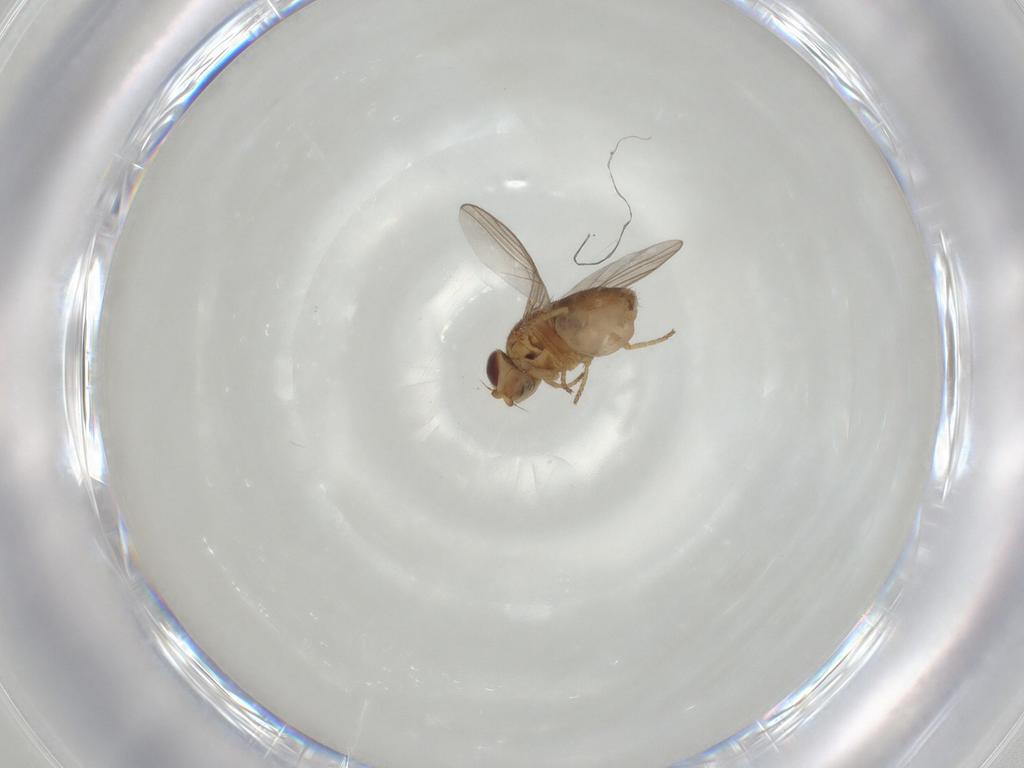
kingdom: Animalia
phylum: Arthropoda
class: Insecta
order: Diptera
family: Chloropidae
